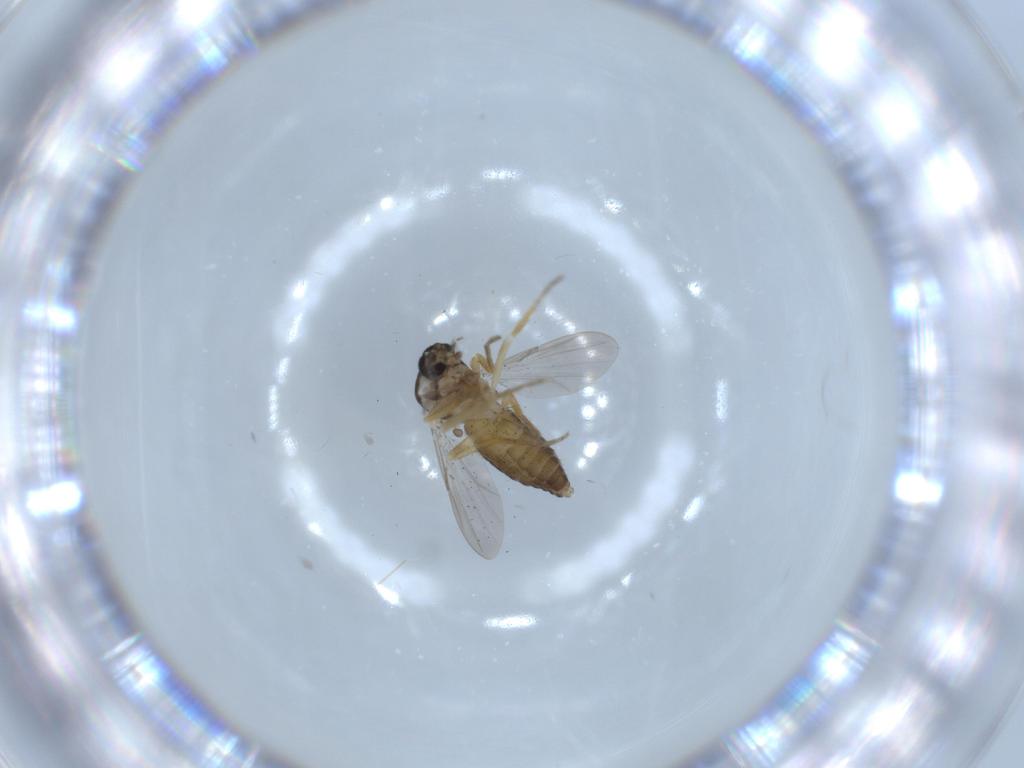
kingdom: Animalia
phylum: Arthropoda
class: Insecta
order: Diptera
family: Ceratopogonidae
